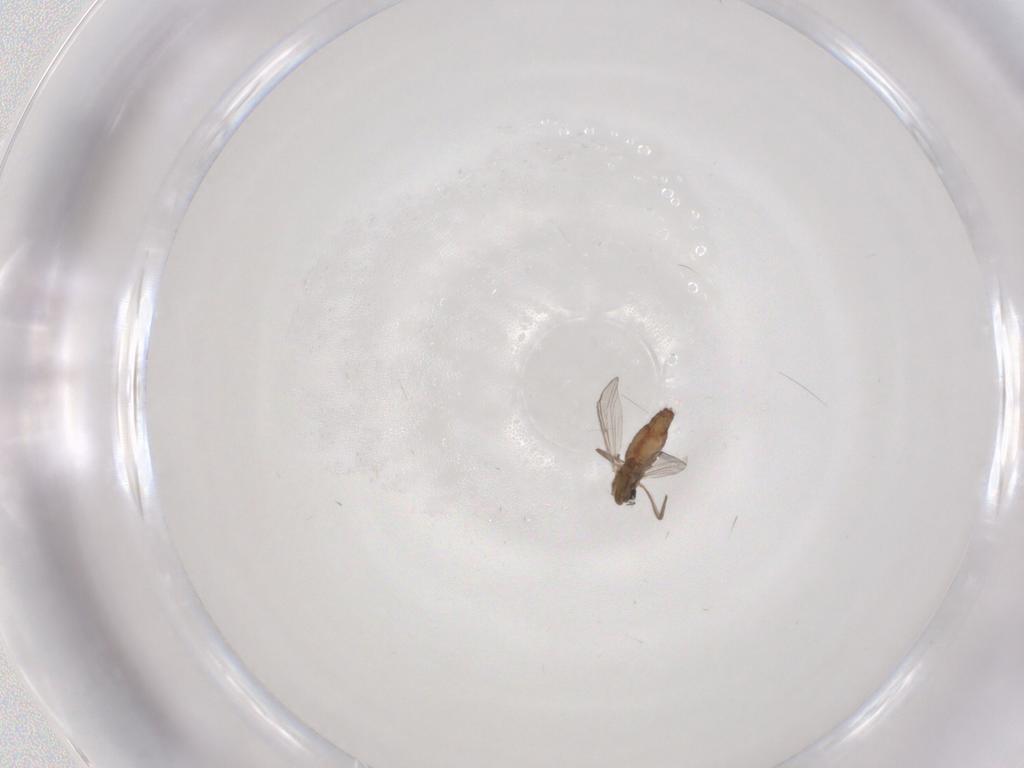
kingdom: Animalia
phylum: Arthropoda
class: Insecta
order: Diptera
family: Chironomidae
